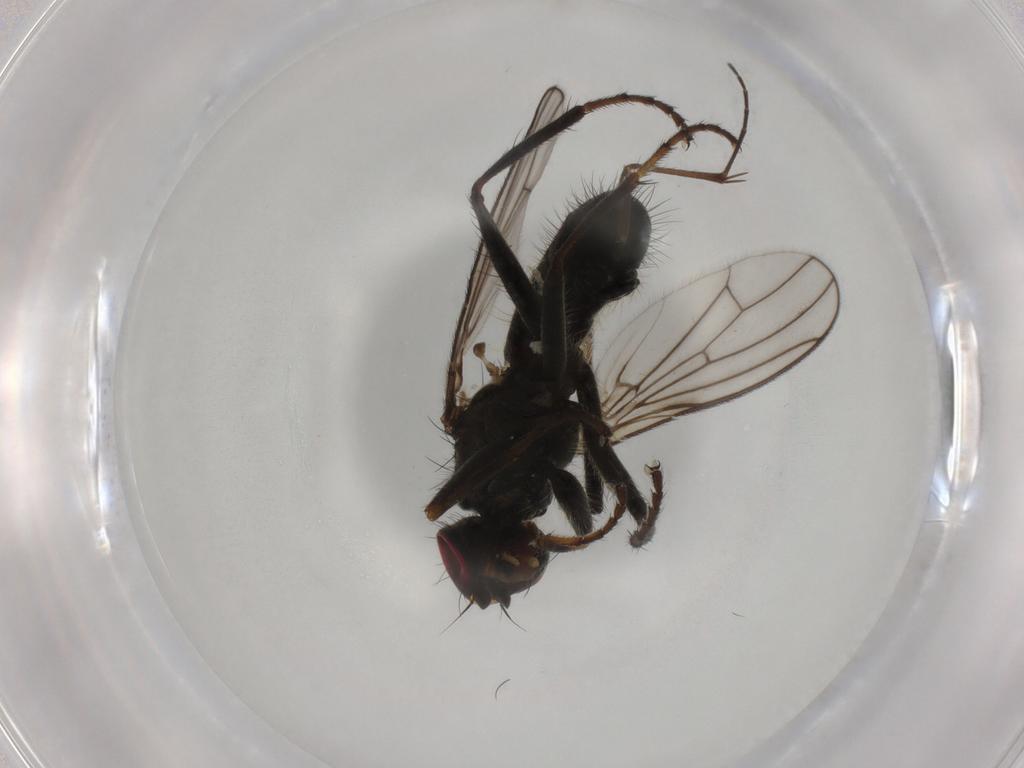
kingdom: Animalia
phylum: Arthropoda
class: Insecta
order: Diptera
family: Scathophagidae
